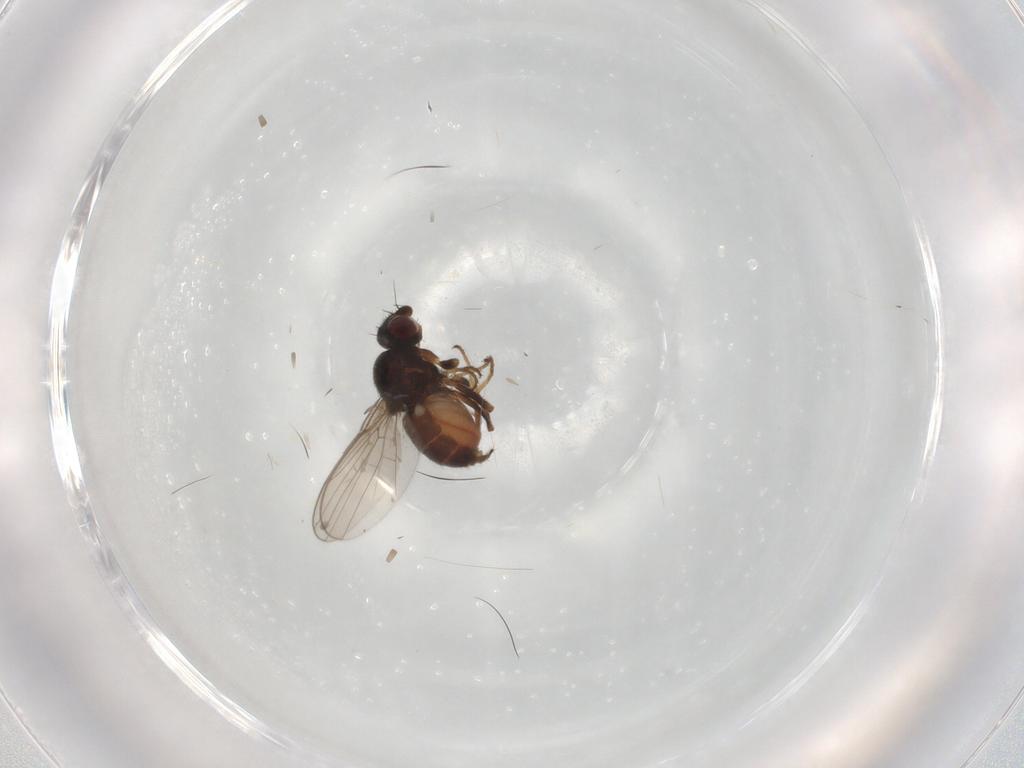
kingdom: Animalia
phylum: Arthropoda
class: Insecta
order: Diptera
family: Chloropidae
